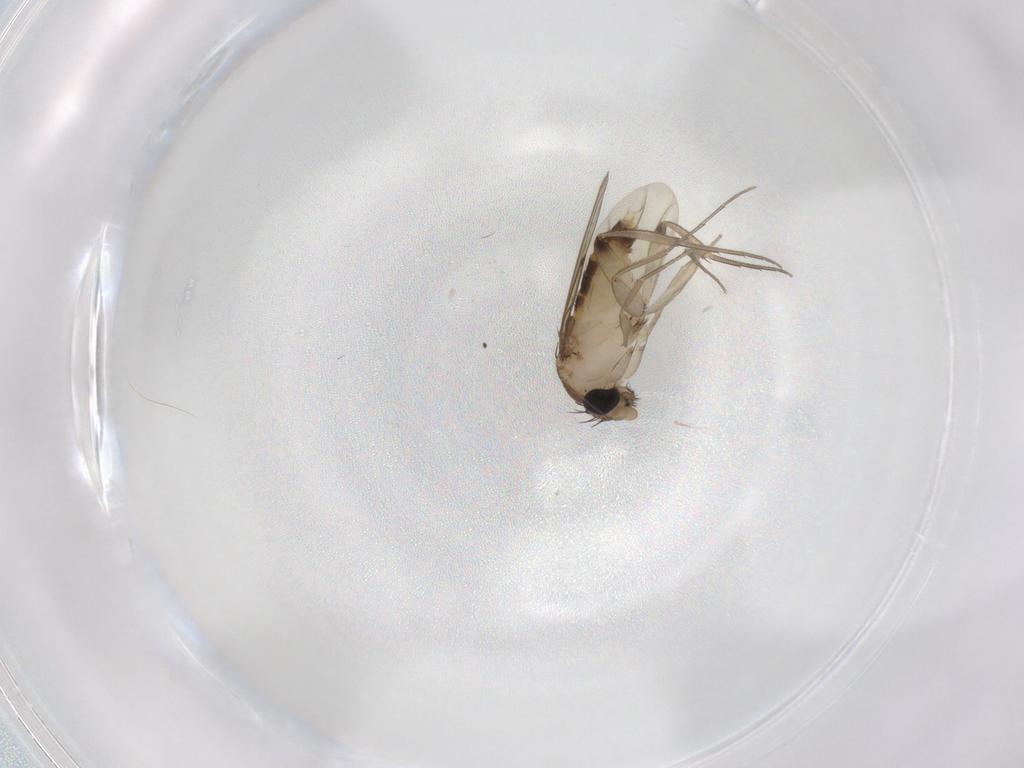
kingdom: Animalia
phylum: Arthropoda
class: Insecta
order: Diptera
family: Phoridae
